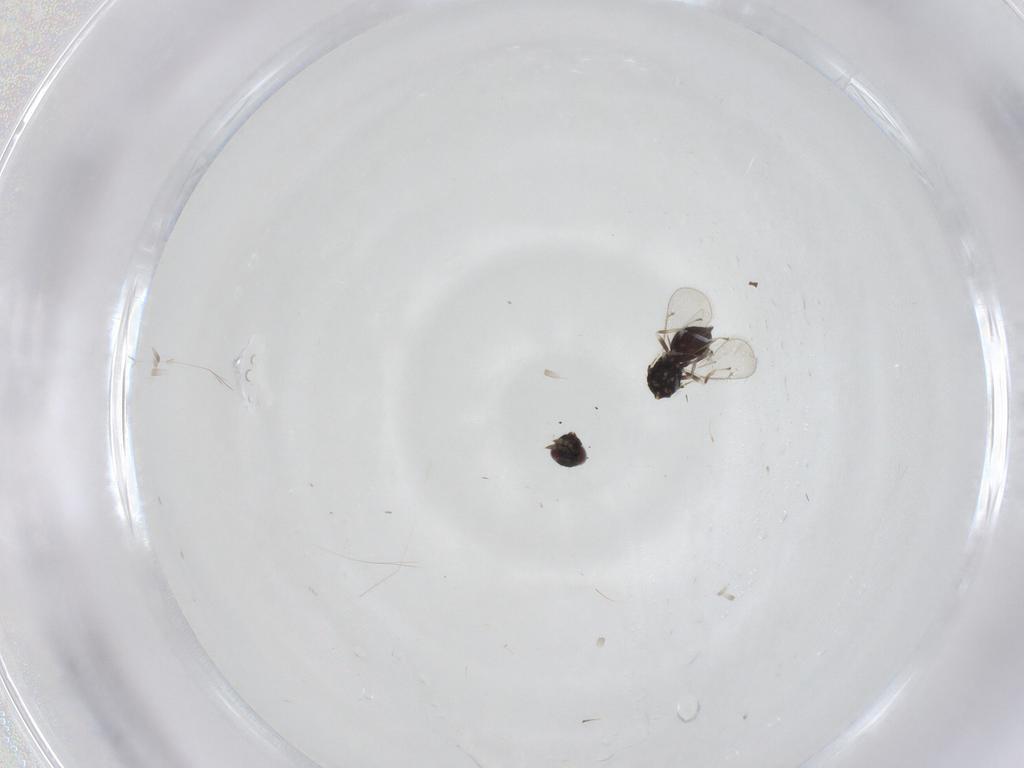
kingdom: Animalia
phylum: Arthropoda
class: Insecta
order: Hymenoptera
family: Eulophidae
